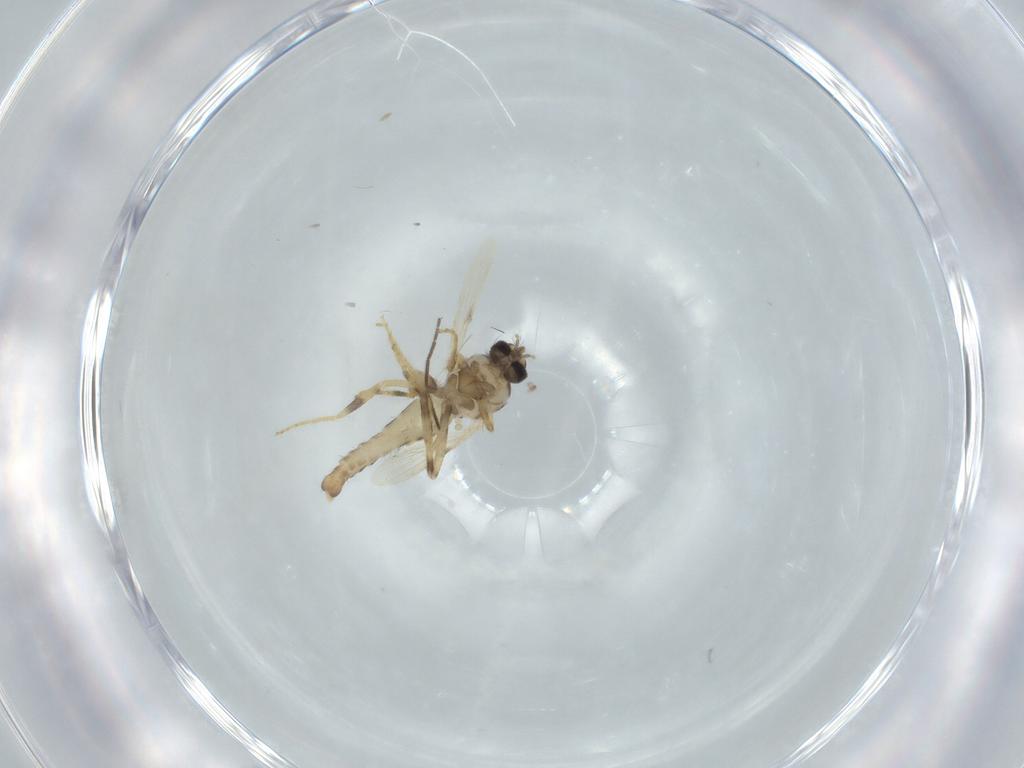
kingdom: Animalia
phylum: Arthropoda
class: Insecta
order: Diptera
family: Ceratopogonidae
